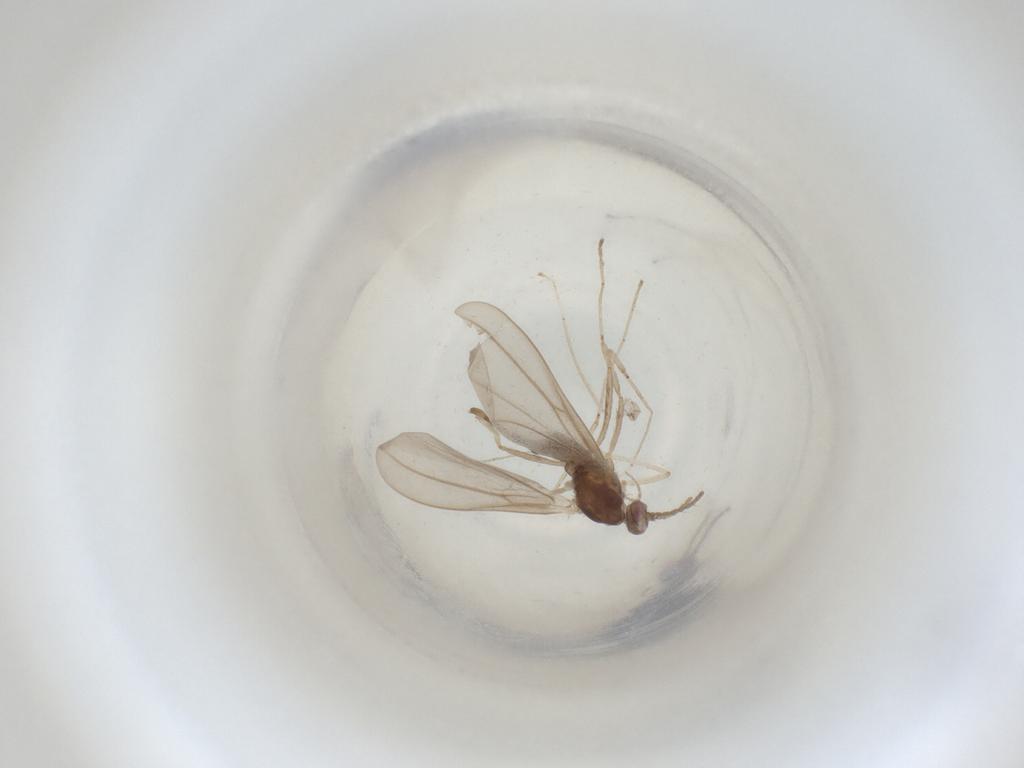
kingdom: Animalia
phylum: Arthropoda
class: Insecta
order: Diptera
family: Cecidomyiidae
